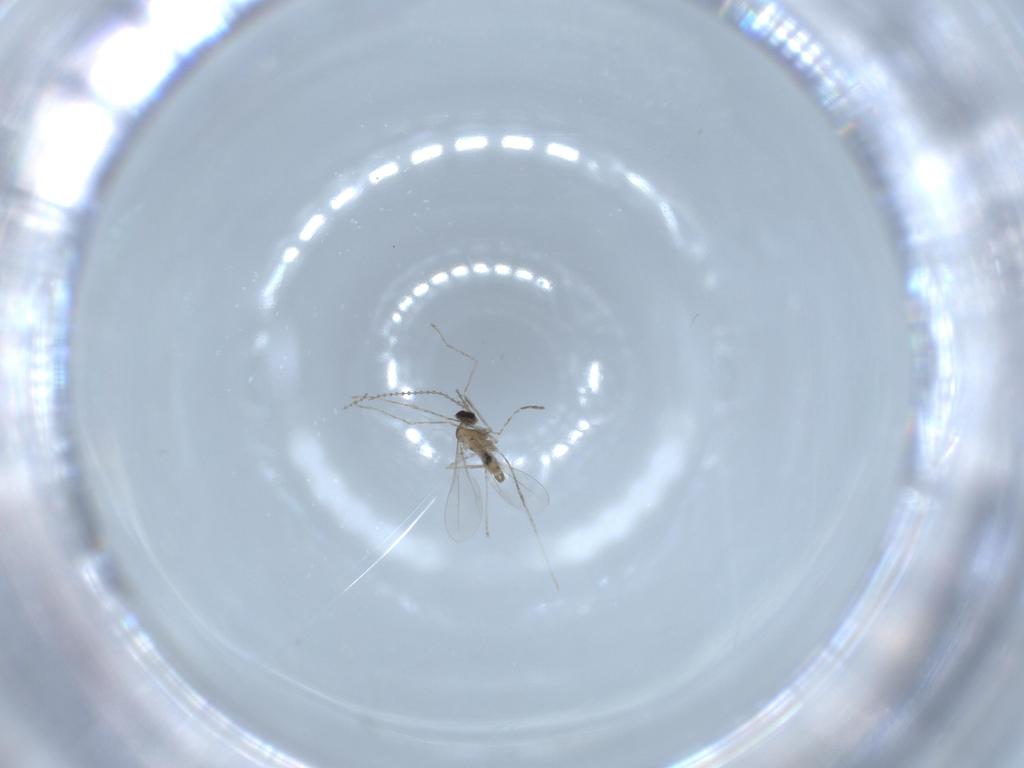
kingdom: Animalia
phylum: Arthropoda
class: Insecta
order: Diptera
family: Cecidomyiidae
